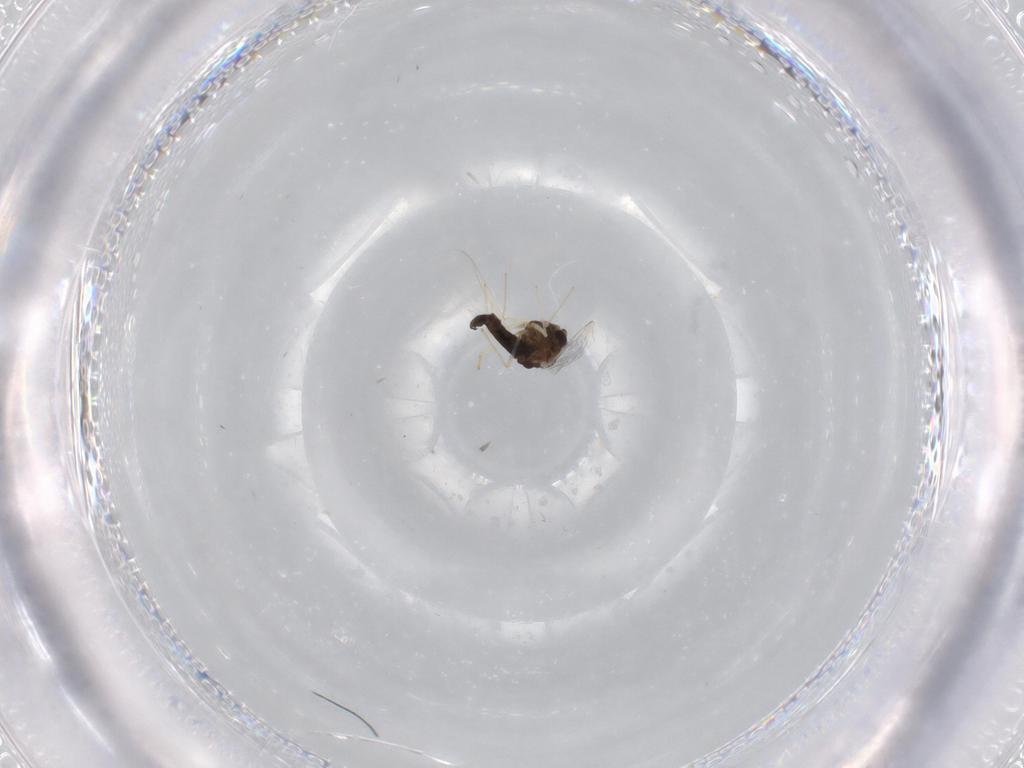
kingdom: Animalia
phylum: Arthropoda
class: Insecta
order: Diptera
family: Chironomidae
